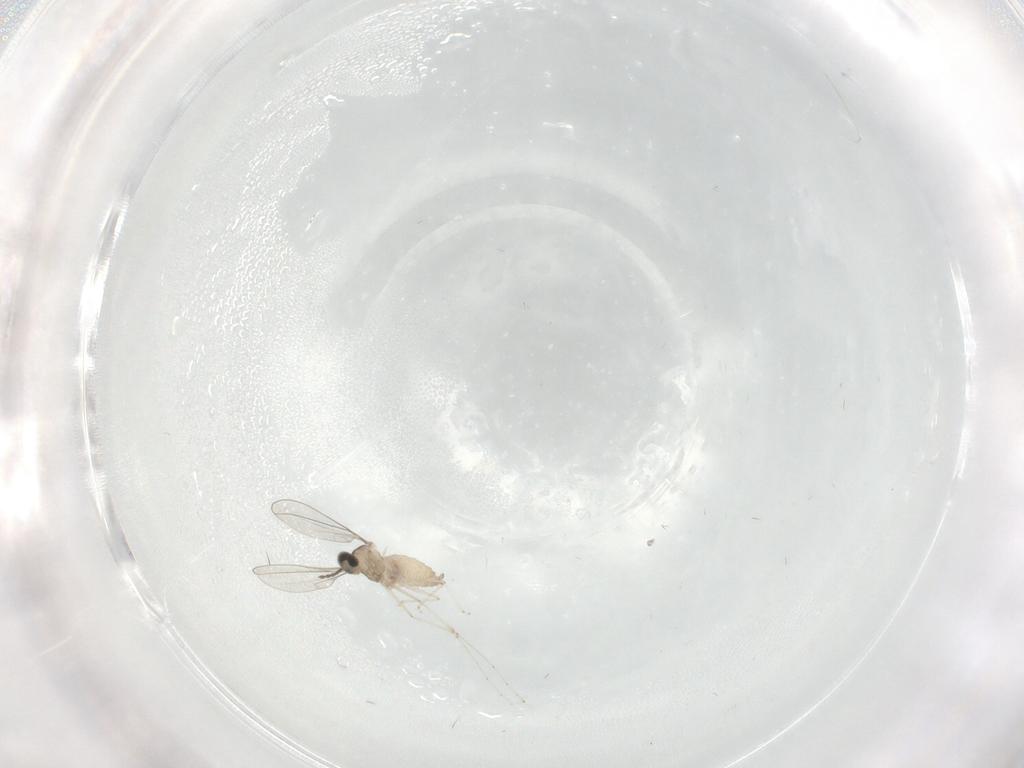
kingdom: Animalia
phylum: Arthropoda
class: Insecta
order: Diptera
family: Cecidomyiidae
